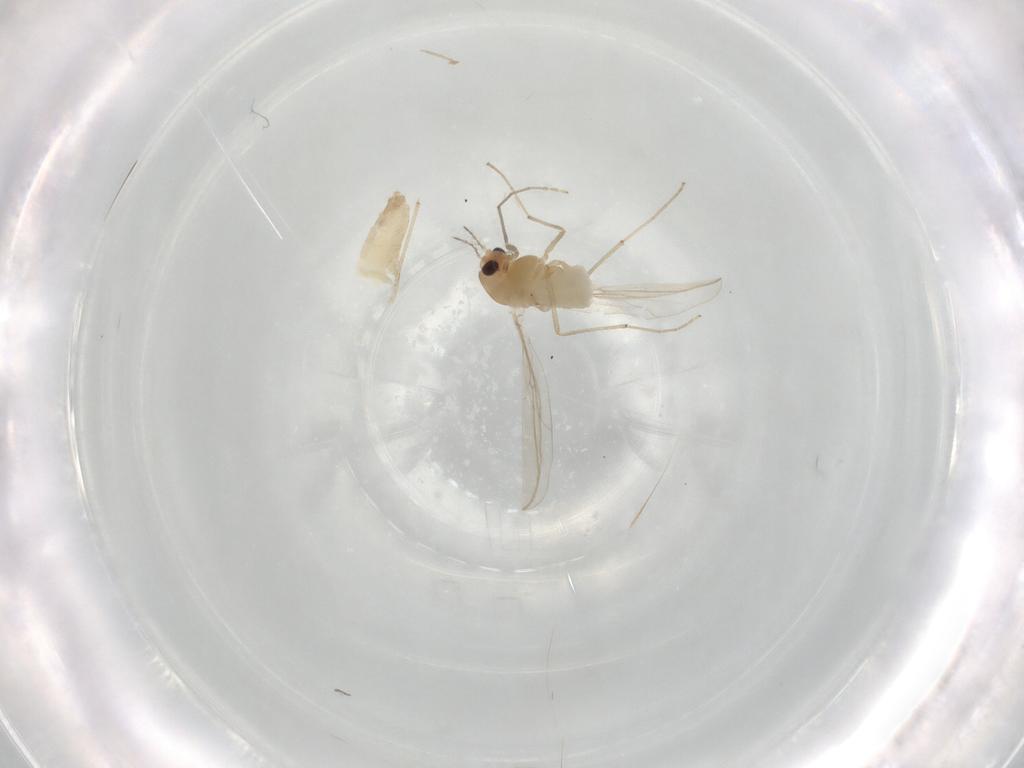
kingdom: Animalia
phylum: Arthropoda
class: Insecta
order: Diptera
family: Chironomidae
